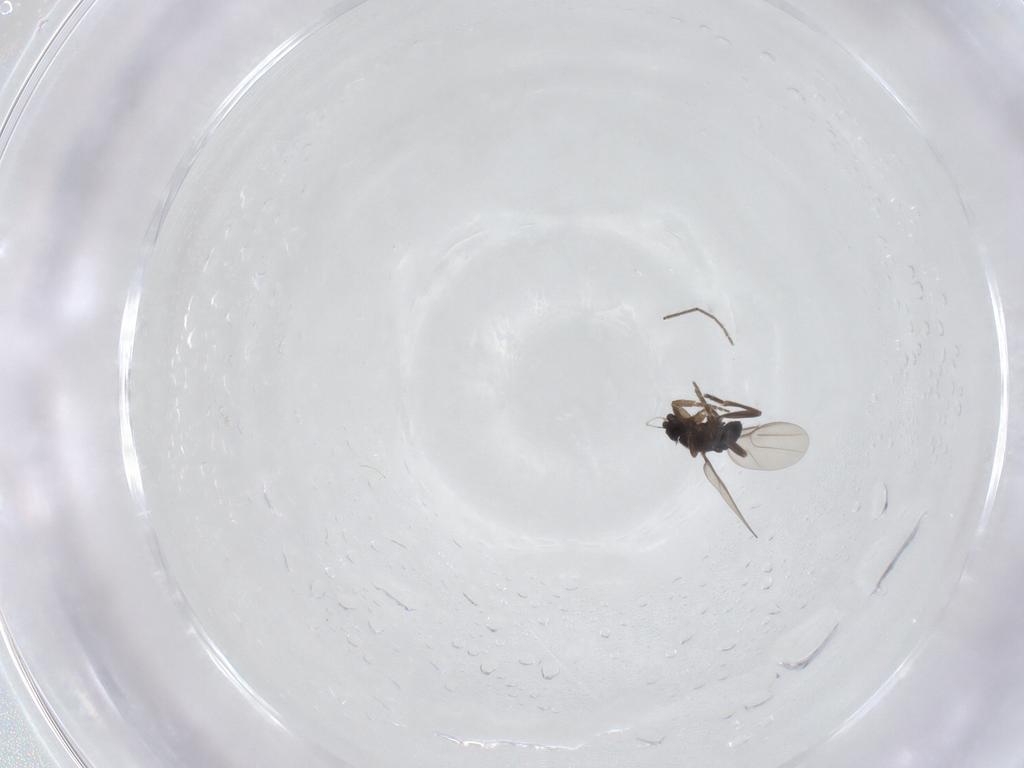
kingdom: Animalia
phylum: Arthropoda
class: Insecta
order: Diptera
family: Chironomidae
